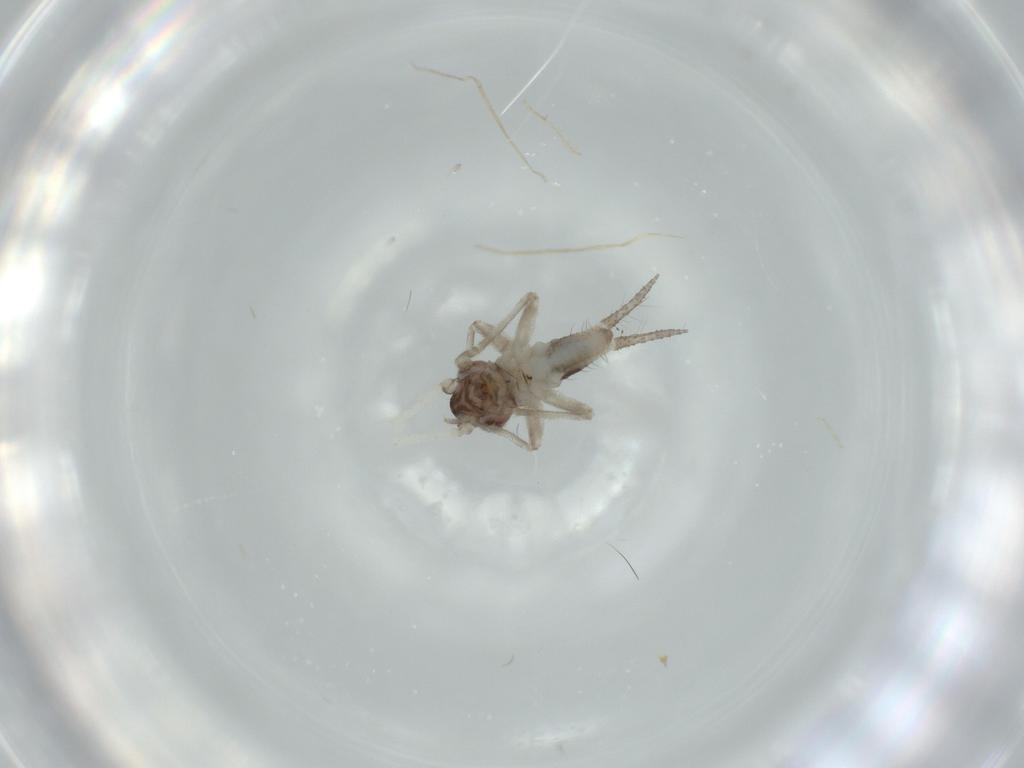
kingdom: Animalia
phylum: Arthropoda
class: Insecta
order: Orthoptera
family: Trigonidiidae
